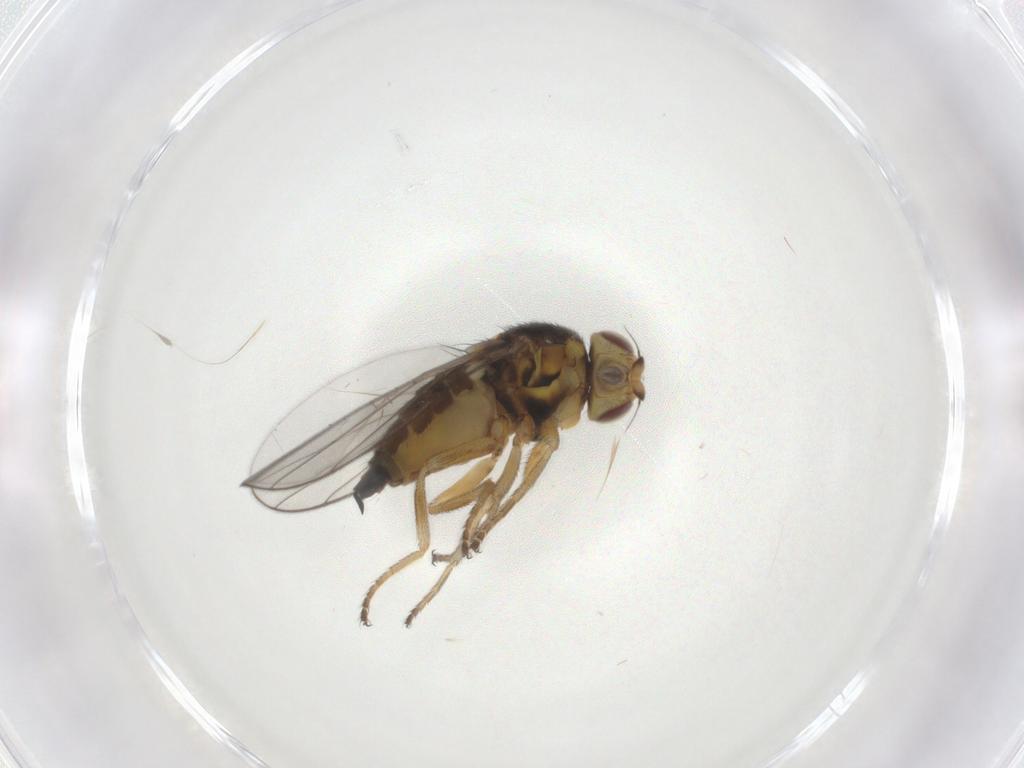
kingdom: Animalia
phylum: Arthropoda
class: Insecta
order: Diptera
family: Chloropidae
